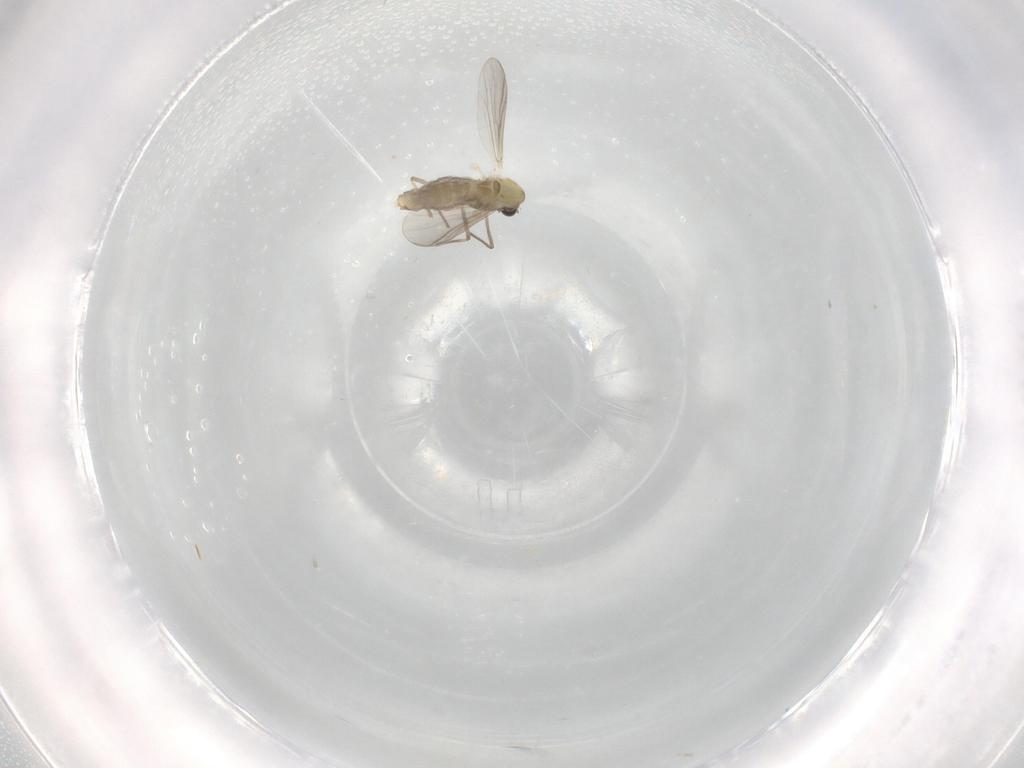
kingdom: Animalia
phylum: Arthropoda
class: Insecta
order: Diptera
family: Chironomidae
